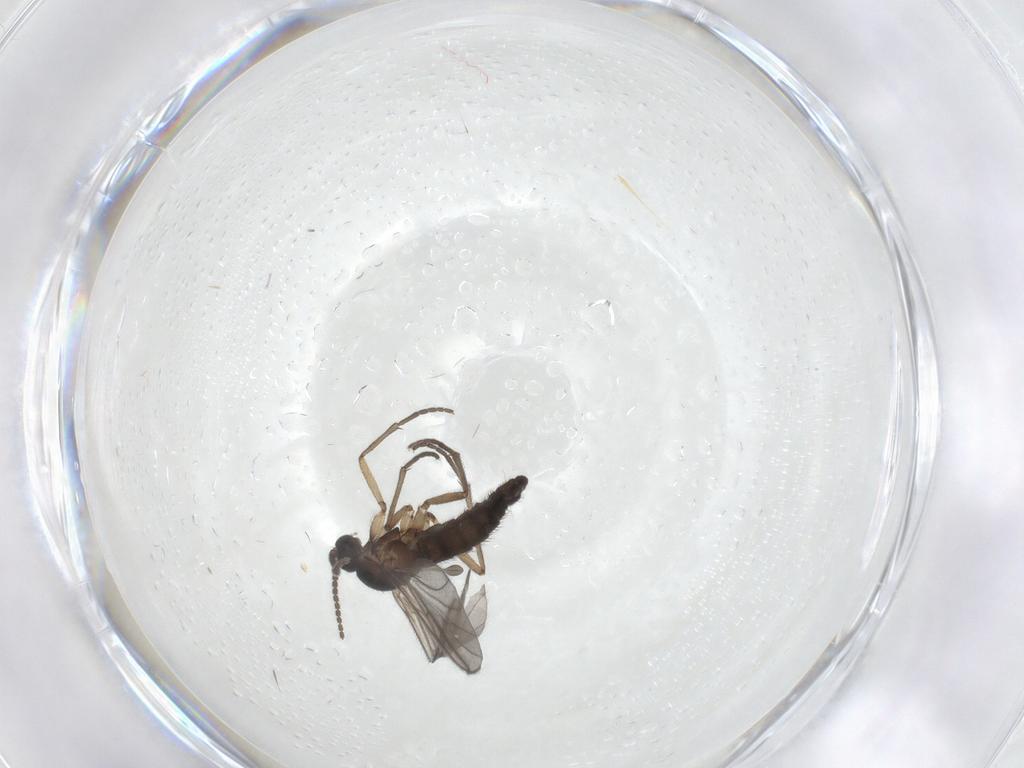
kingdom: Animalia
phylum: Arthropoda
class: Insecta
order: Diptera
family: Sciaridae
